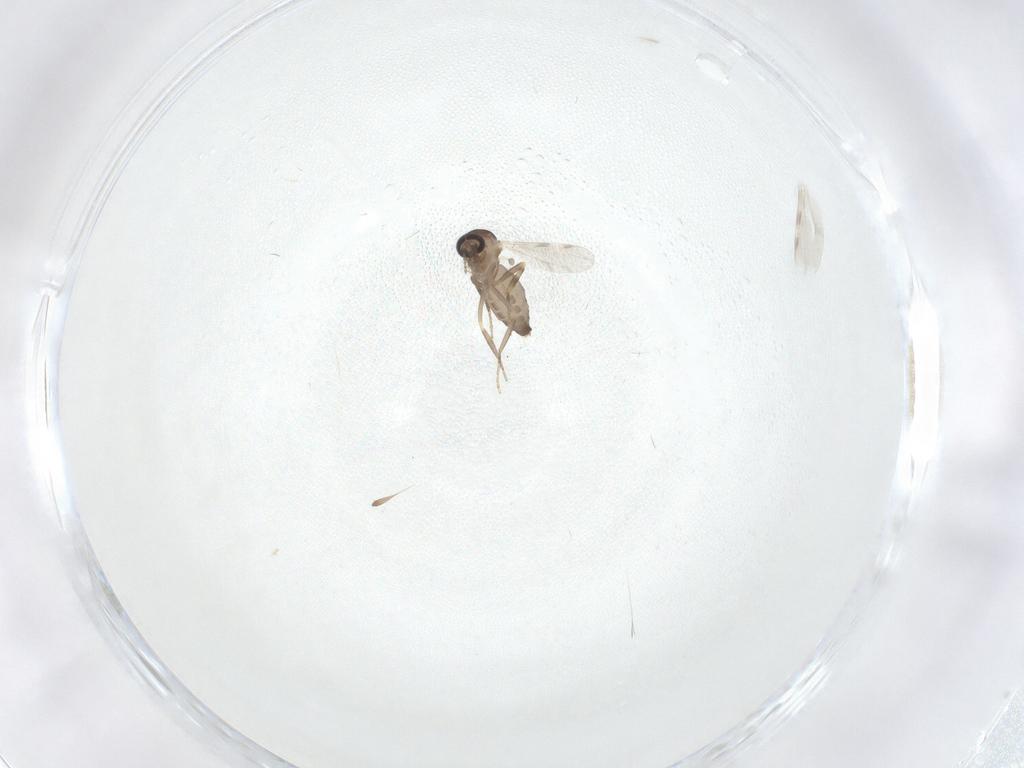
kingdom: Animalia
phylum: Arthropoda
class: Insecta
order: Diptera
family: Ceratopogonidae
